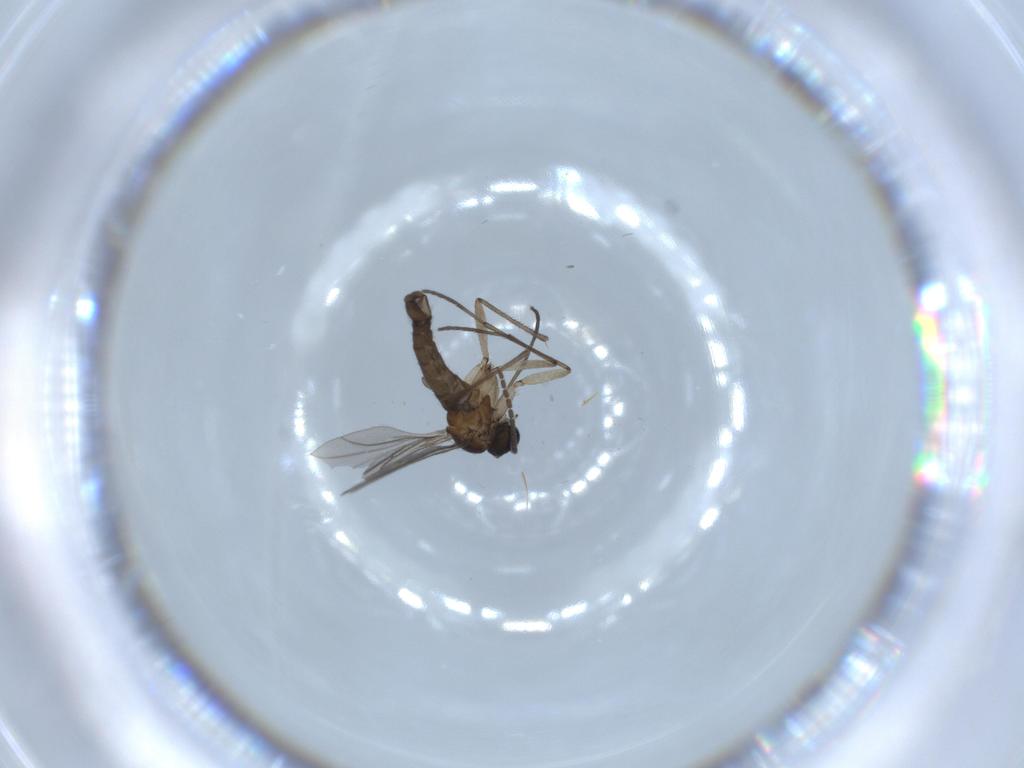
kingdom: Animalia
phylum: Arthropoda
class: Insecta
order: Diptera
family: Sciaridae
